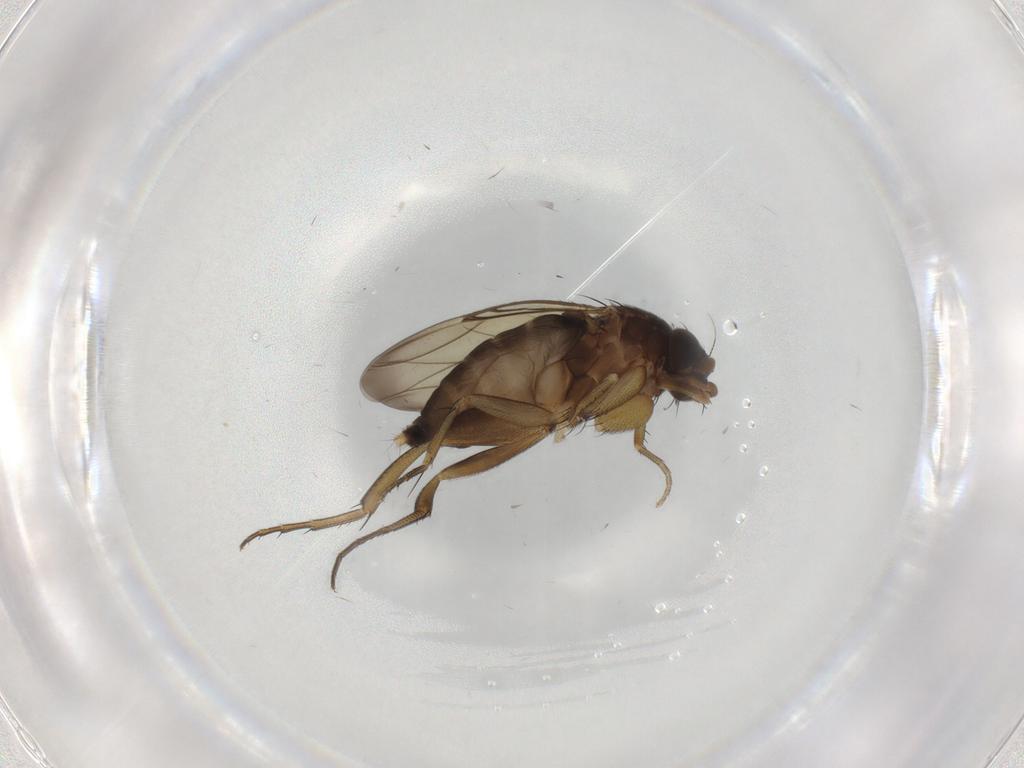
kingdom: Animalia
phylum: Arthropoda
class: Insecta
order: Diptera
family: Phoridae
